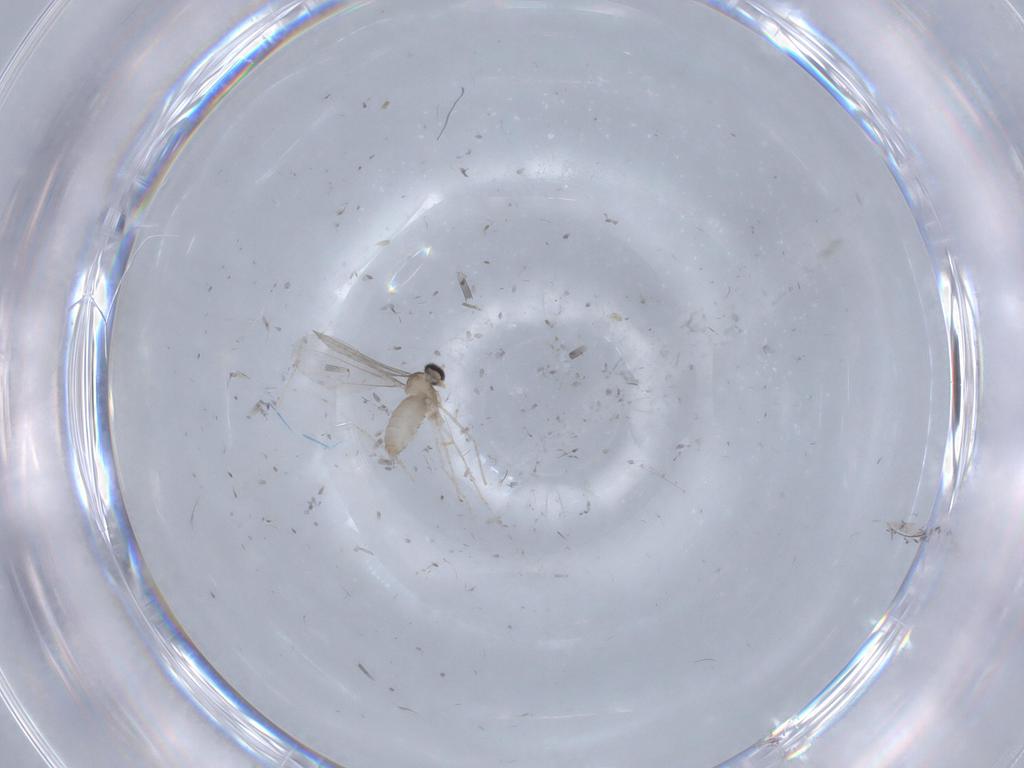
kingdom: Animalia
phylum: Arthropoda
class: Insecta
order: Diptera
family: Cecidomyiidae
